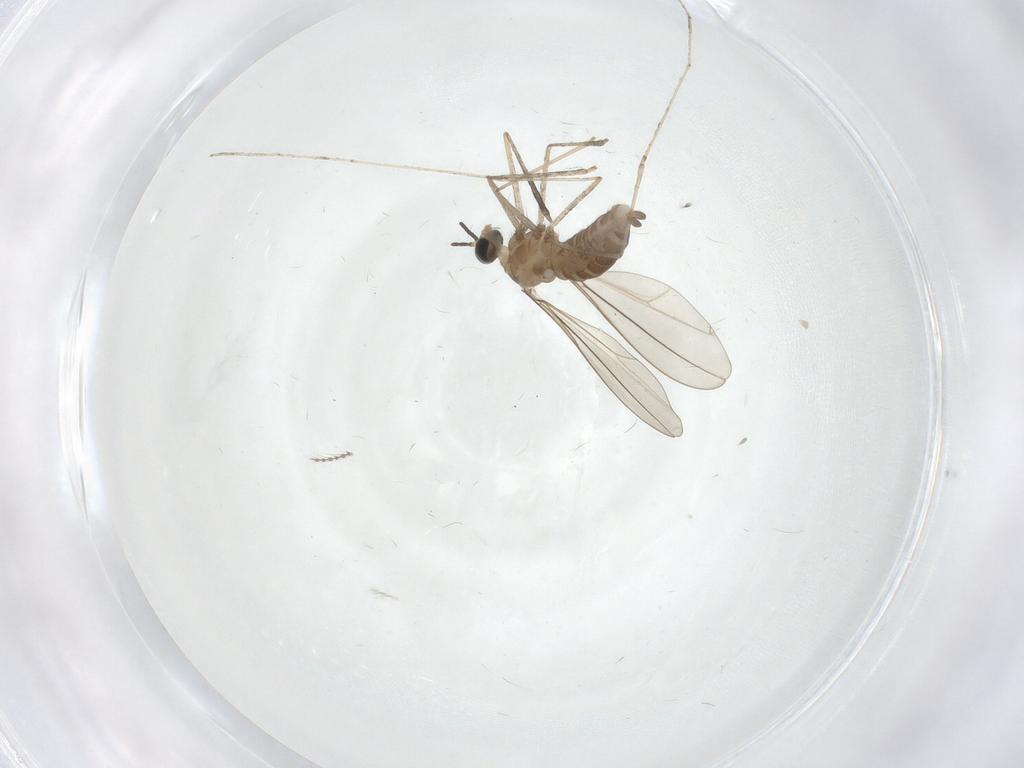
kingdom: Animalia
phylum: Arthropoda
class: Insecta
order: Diptera
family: Cecidomyiidae
